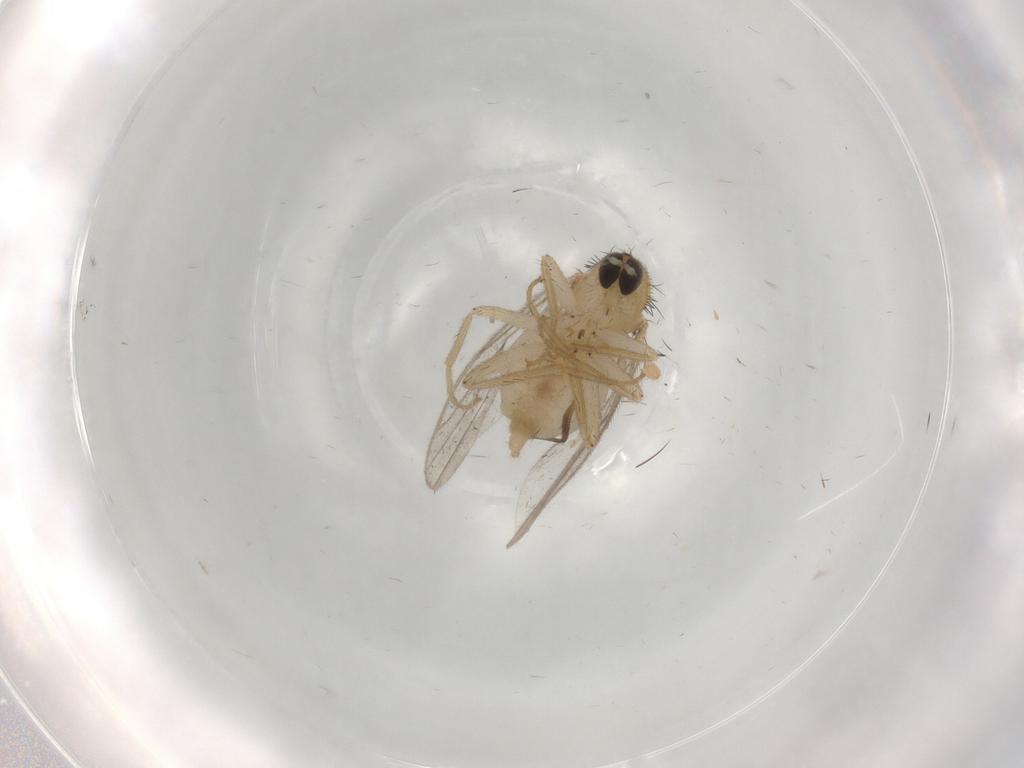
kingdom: Animalia
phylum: Arthropoda
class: Insecta
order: Diptera
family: Hybotidae
